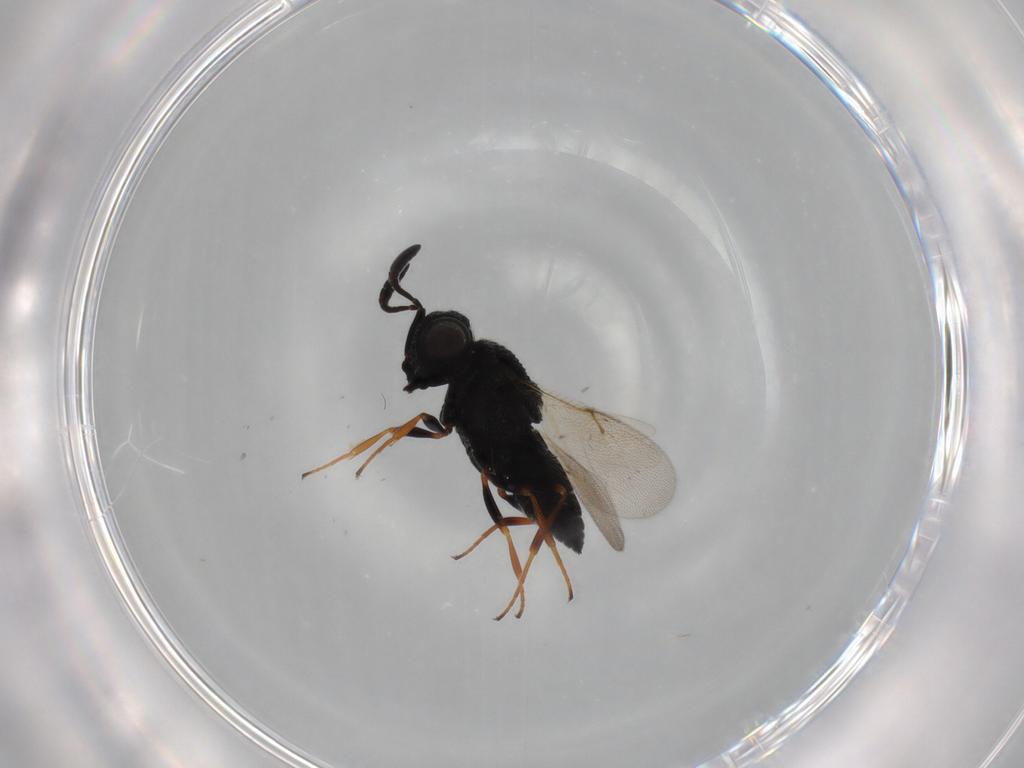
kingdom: Animalia
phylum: Arthropoda
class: Insecta
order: Hymenoptera
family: Scelionidae
